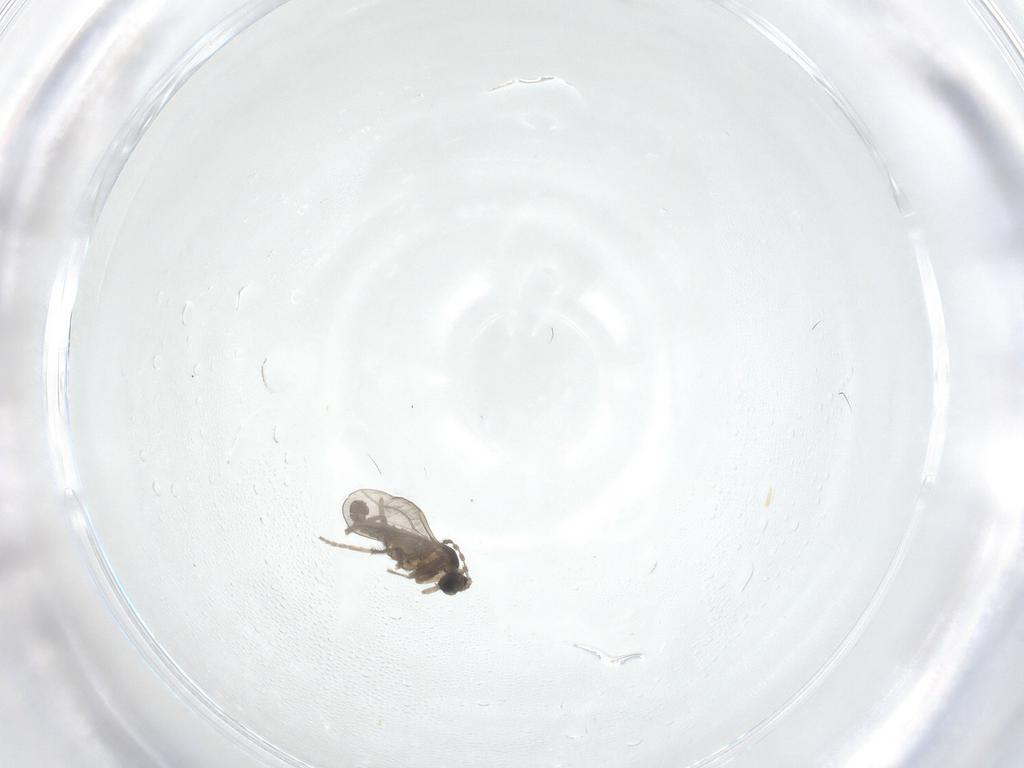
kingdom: Animalia
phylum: Arthropoda
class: Insecta
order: Diptera
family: Cecidomyiidae
